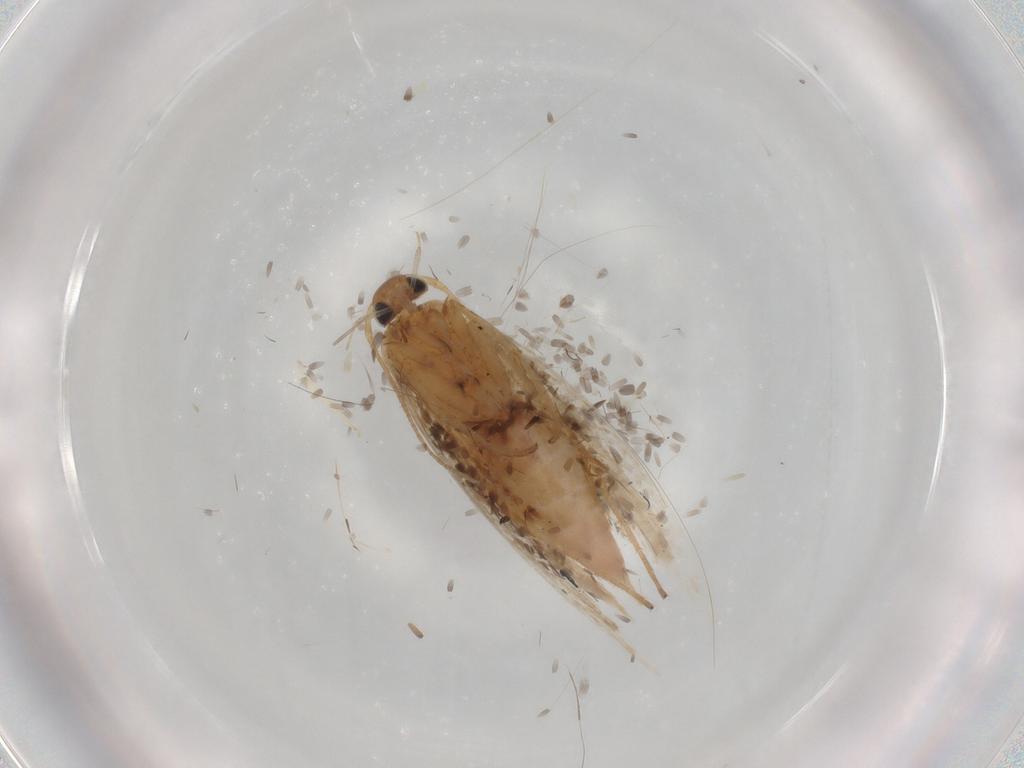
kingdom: Animalia
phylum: Arthropoda
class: Insecta
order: Lepidoptera
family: Gelechiidae
